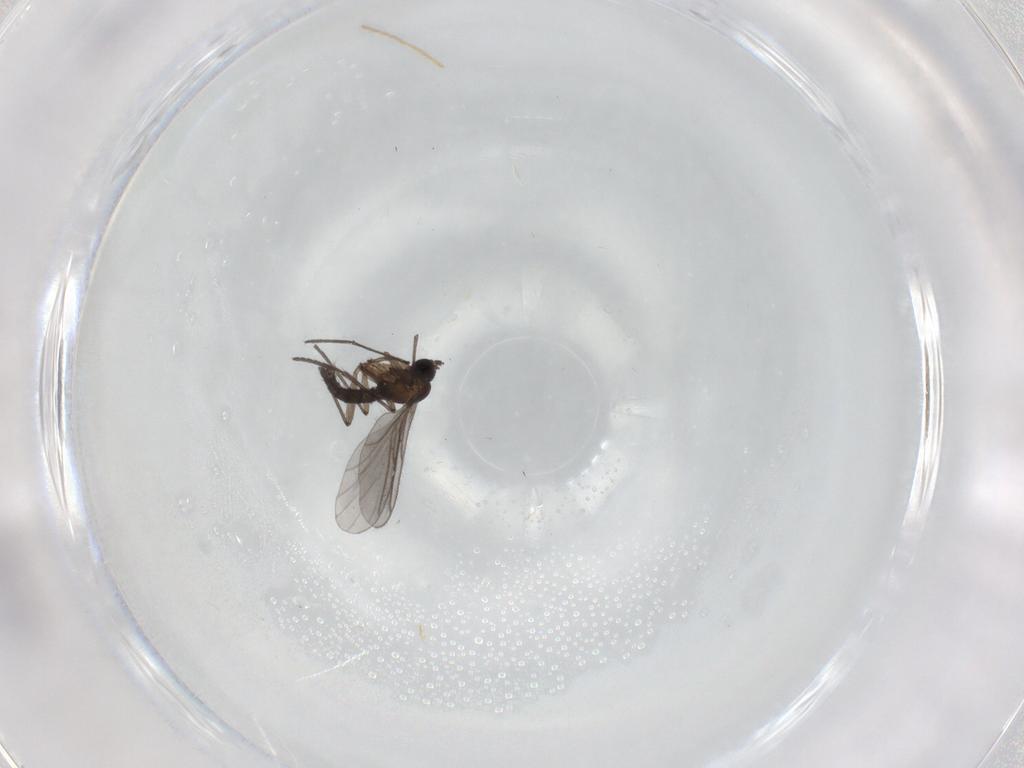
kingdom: Animalia
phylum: Arthropoda
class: Insecta
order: Diptera
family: Chironomidae
